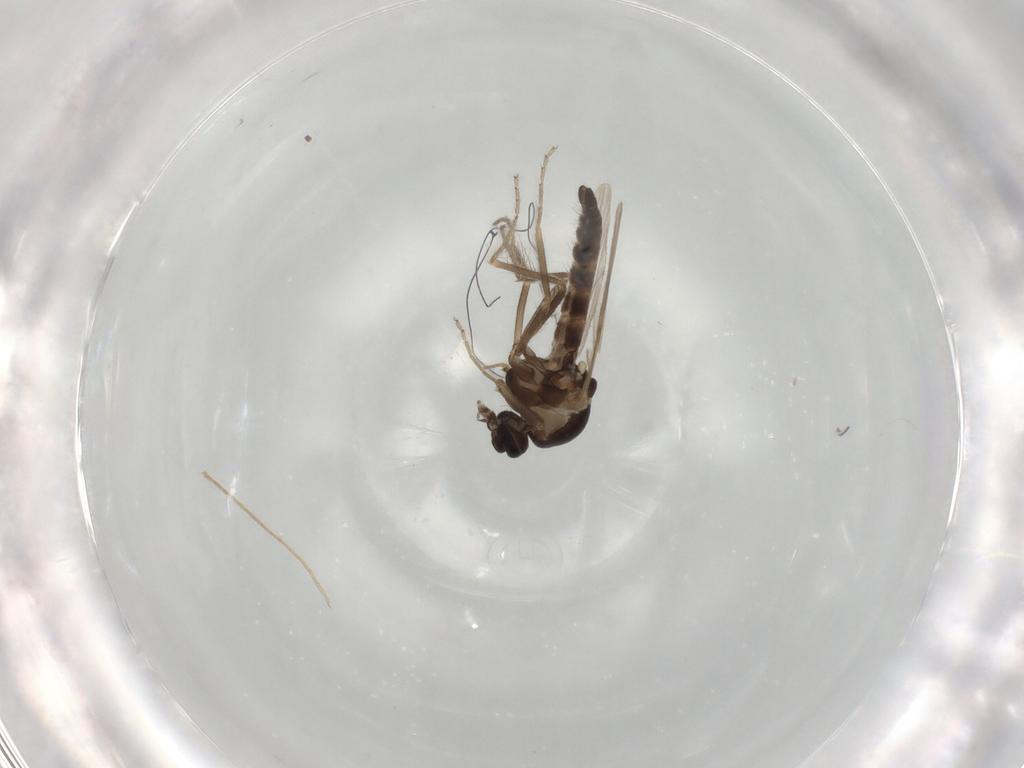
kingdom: Animalia
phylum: Arthropoda
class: Insecta
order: Diptera
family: Ceratopogonidae
